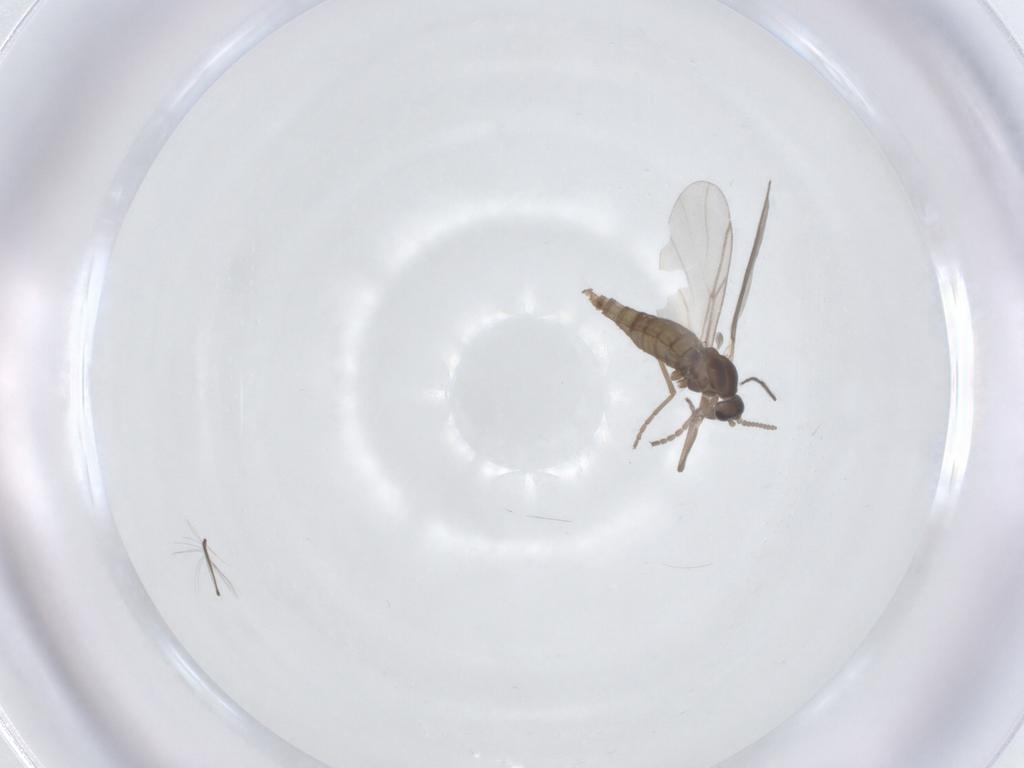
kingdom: Animalia
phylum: Arthropoda
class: Insecta
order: Diptera
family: Cecidomyiidae
